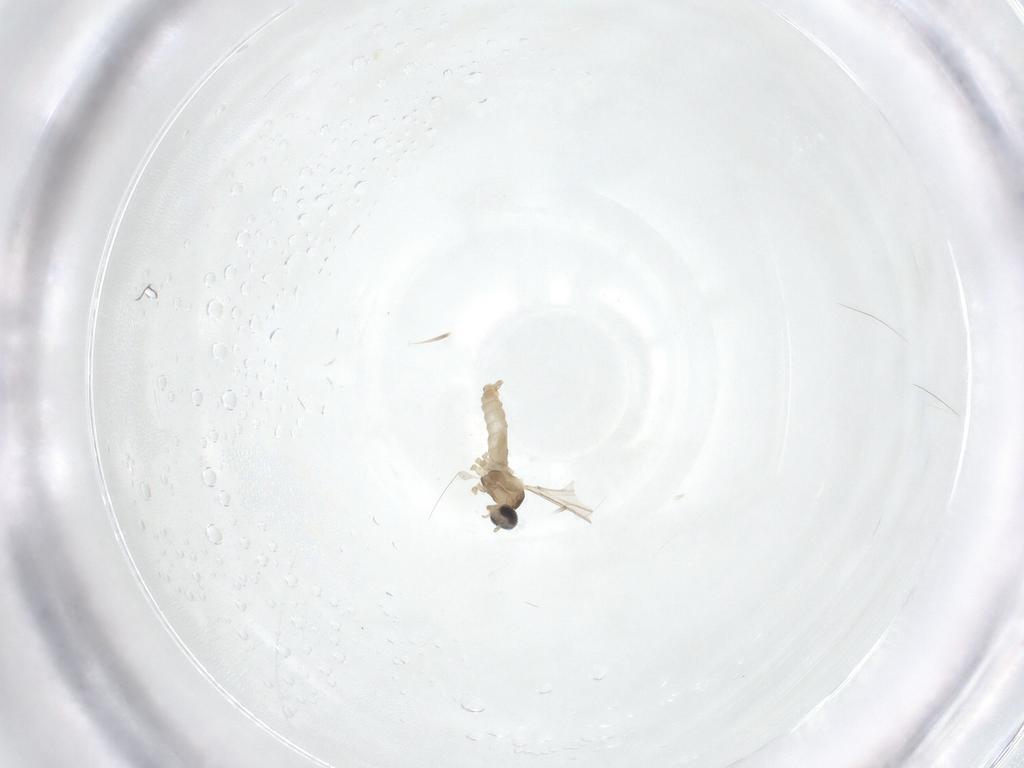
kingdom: Animalia
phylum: Arthropoda
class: Insecta
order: Diptera
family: Cecidomyiidae
